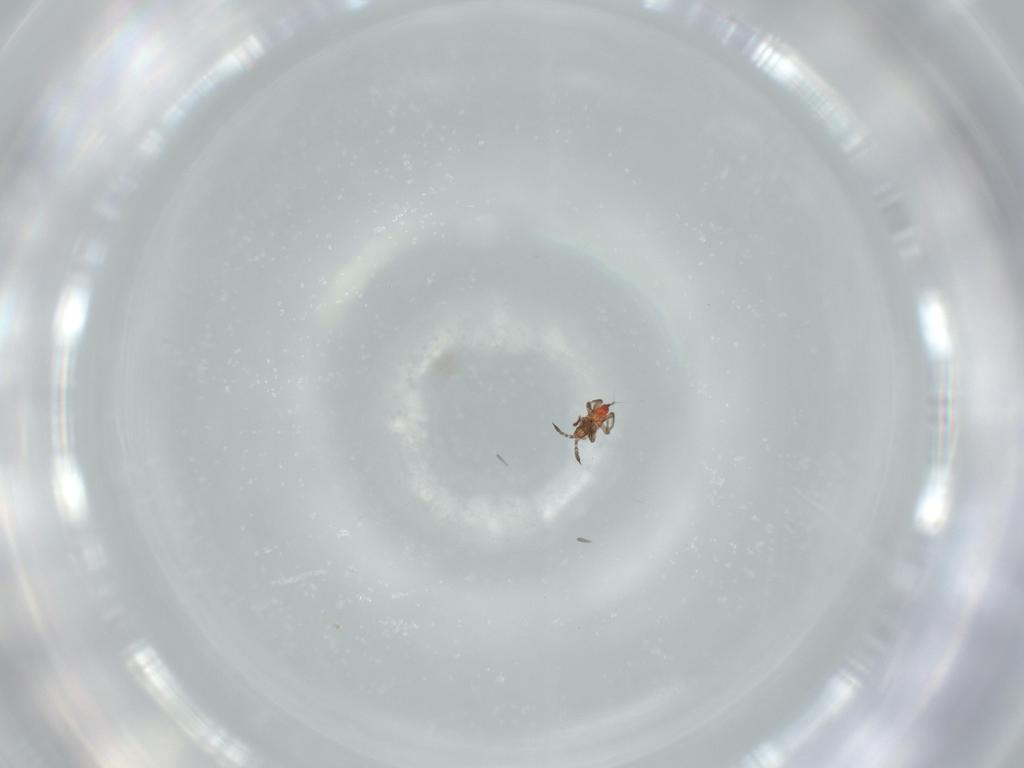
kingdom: Animalia
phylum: Arthropoda
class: Insecta
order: Thysanoptera
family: Phlaeothripidae
